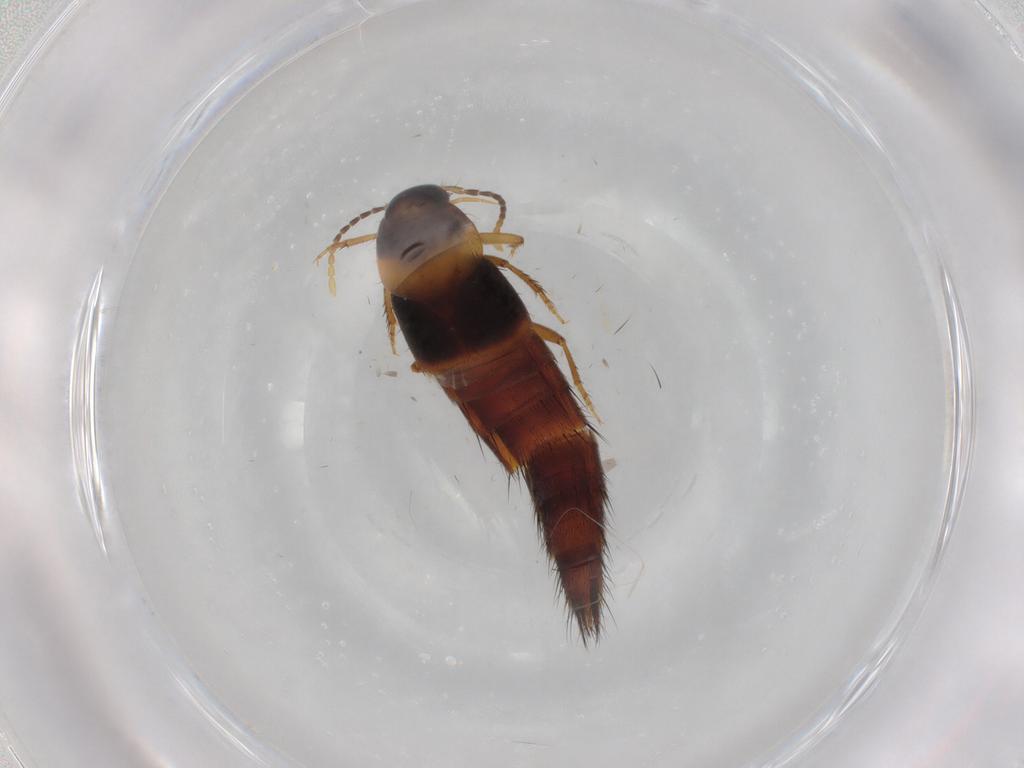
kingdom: Animalia
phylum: Arthropoda
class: Insecta
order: Coleoptera
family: Staphylinidae
